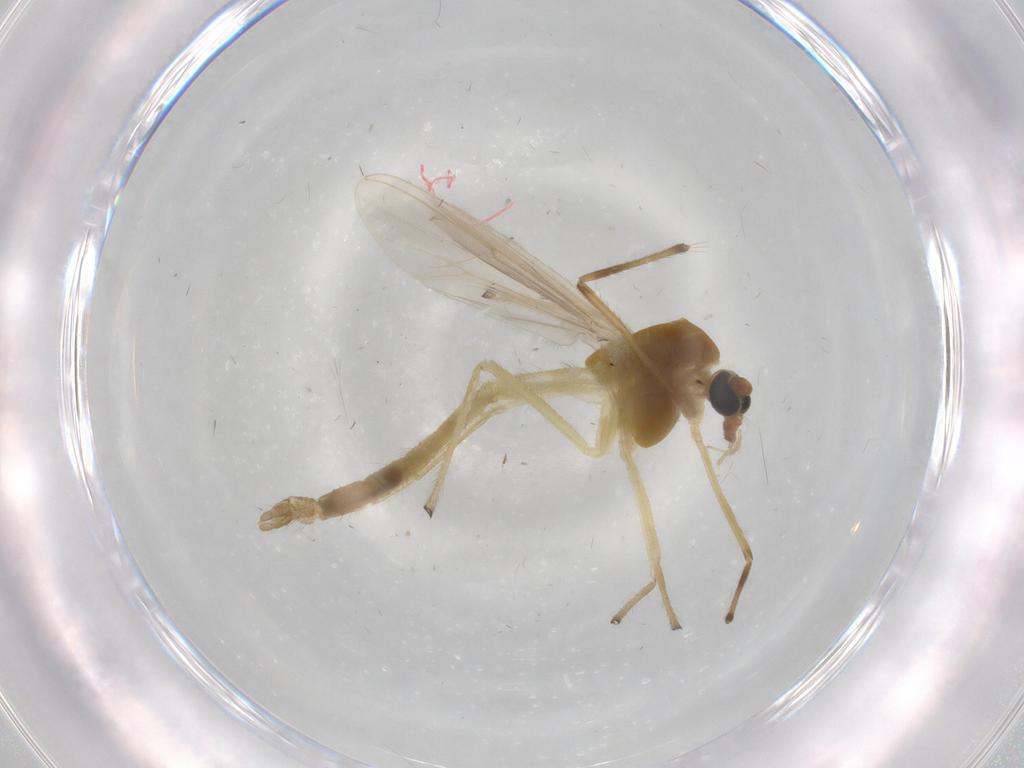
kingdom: Animalia
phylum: Arthropoda
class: Insecta
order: Diptera
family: Chironomidae
